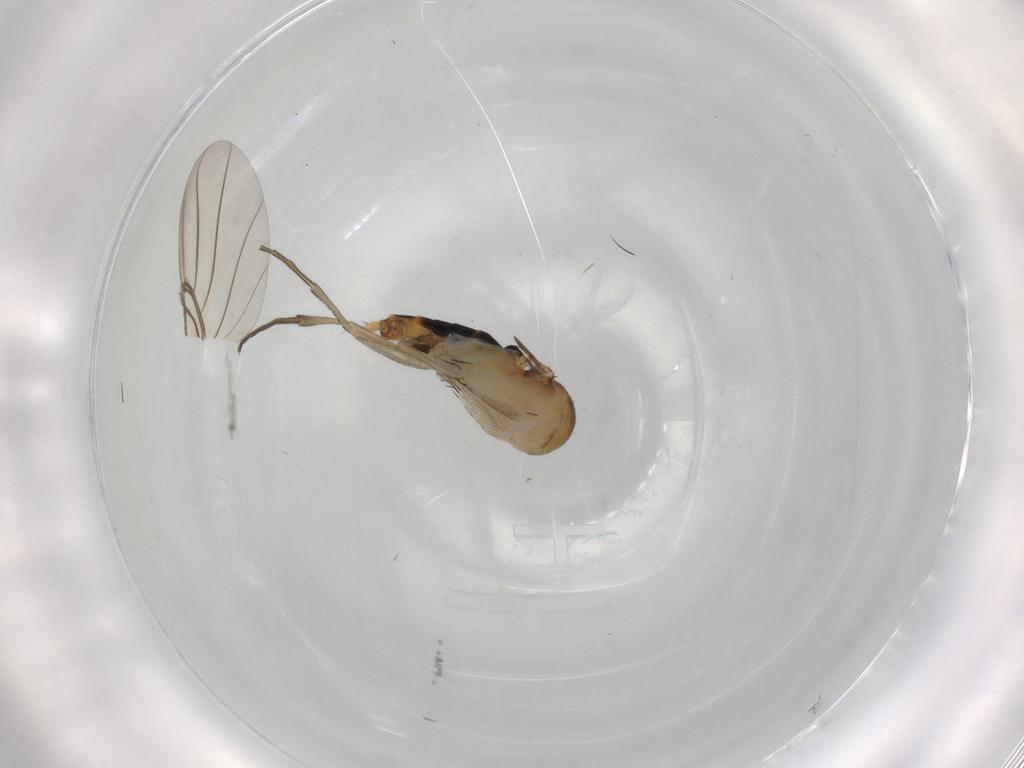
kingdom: Animalia
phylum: Arthropoda
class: Insecta
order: Diptera
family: Phoridae
